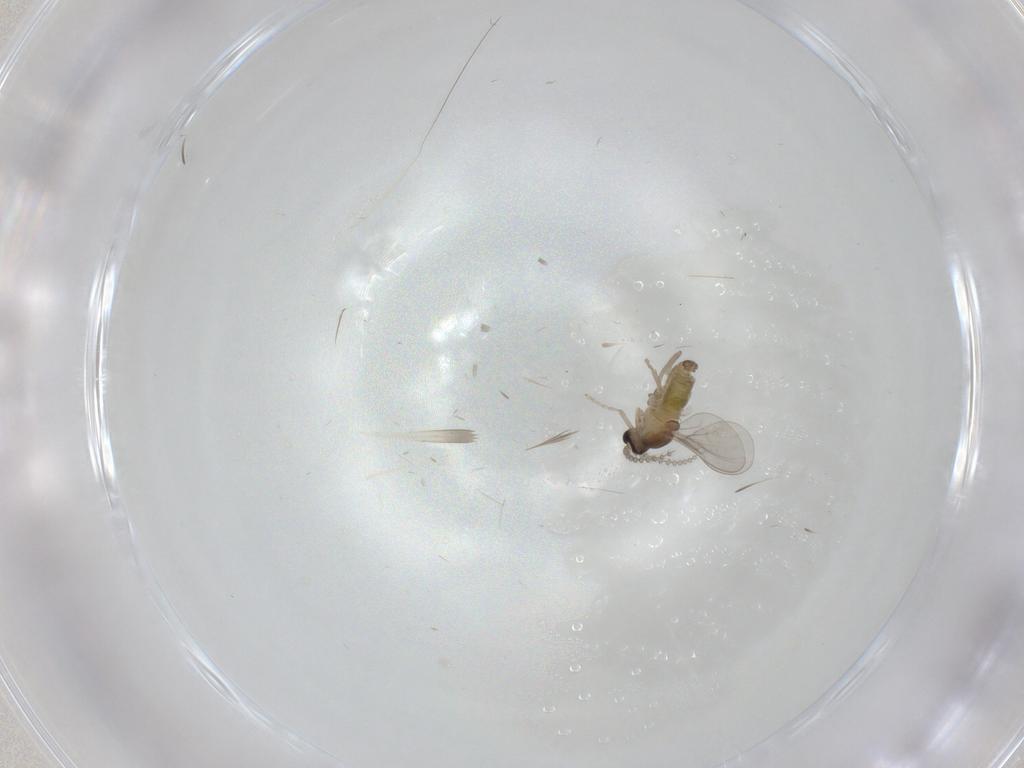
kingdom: Animalia
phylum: Arthropoda
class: Insecta
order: Diptera
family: Cecidomyiidae
